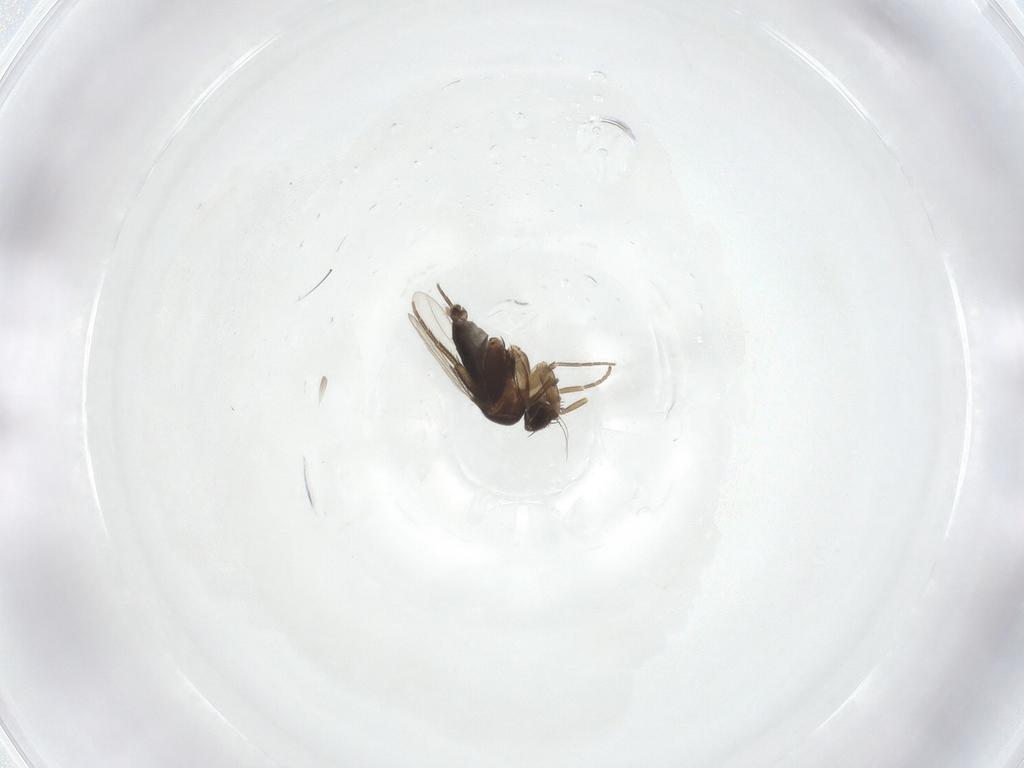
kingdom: Animalia
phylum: Arthropoda
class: Insecta
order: Diptera
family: Phoridae
